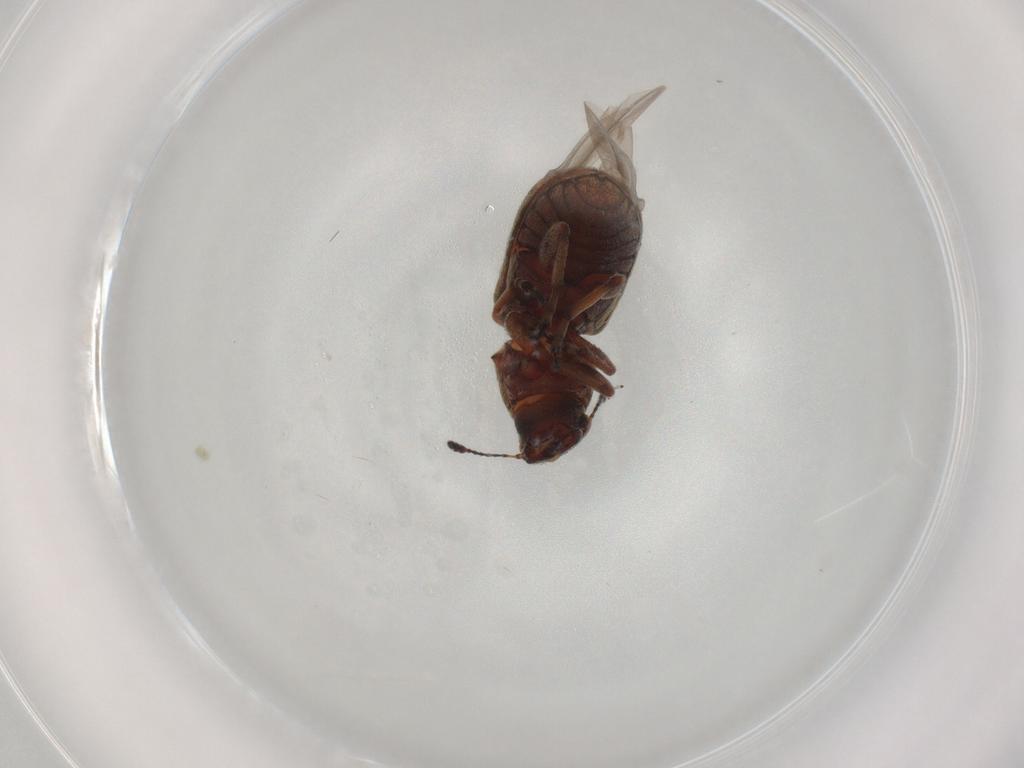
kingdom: Animalia
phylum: Arthropoda
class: Insecta
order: Coleoptera
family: Anthribidae
